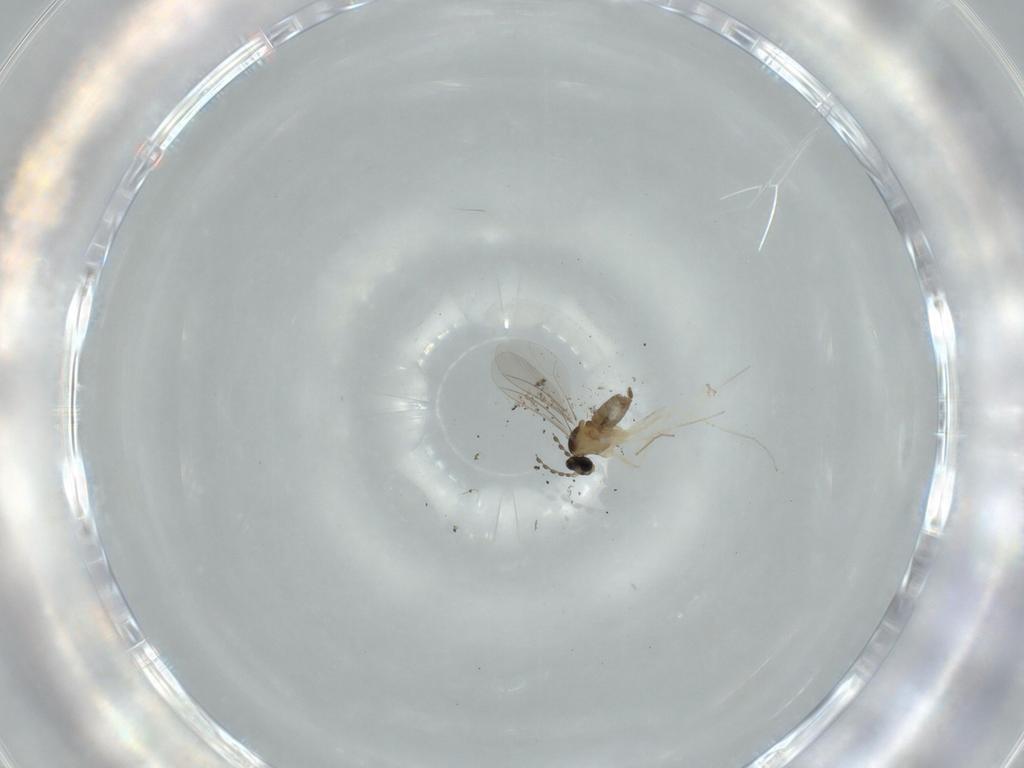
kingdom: Animalia
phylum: Arthropoda
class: Insecta
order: Diptera
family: Cecidomyiidae
